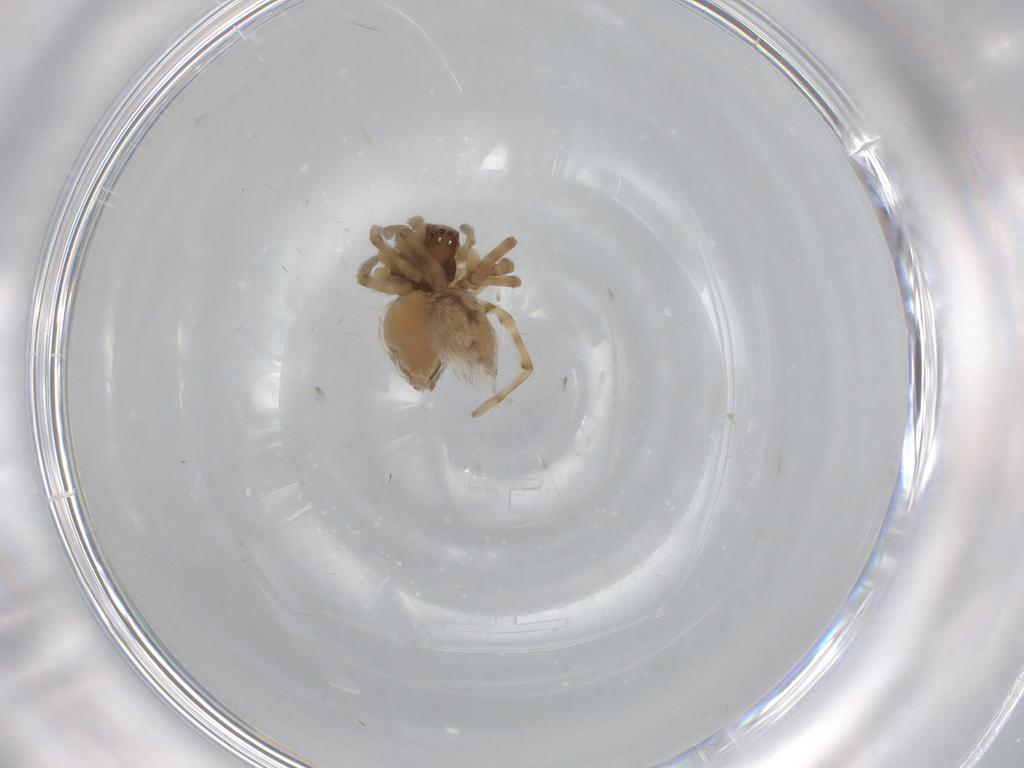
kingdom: Animalia
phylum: Arthropoda
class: Arachnida
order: Araneae
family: Dictynidae
